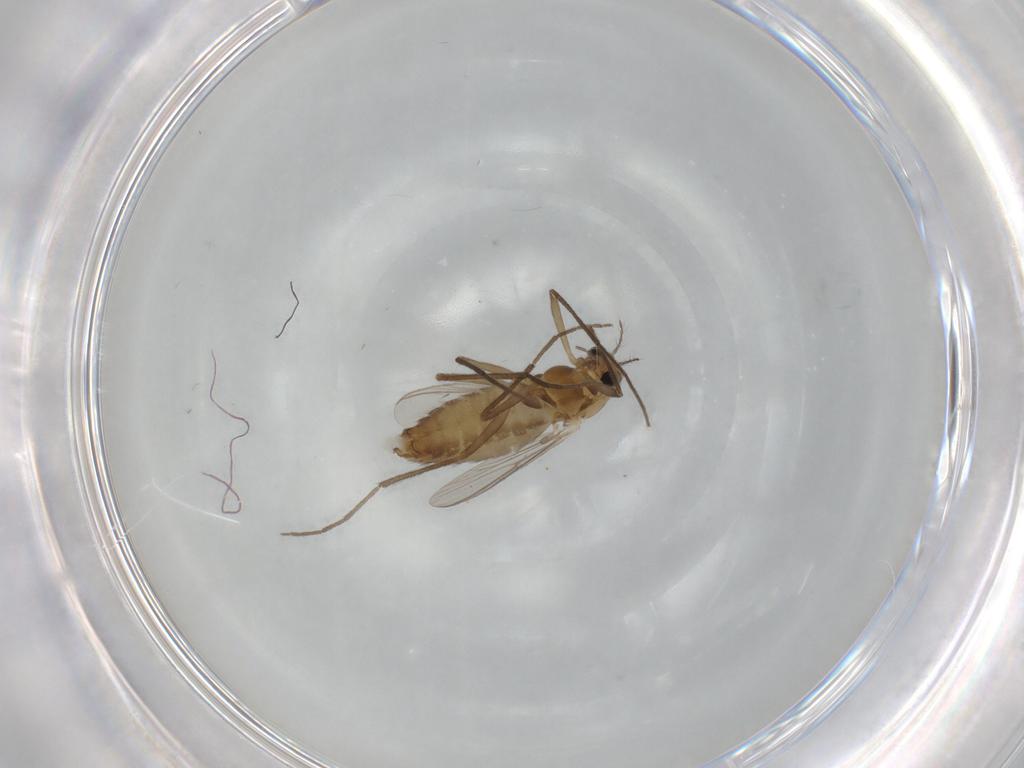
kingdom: Animalia
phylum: Arthropoda
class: Insecta
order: Diptera
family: Chironomidae
